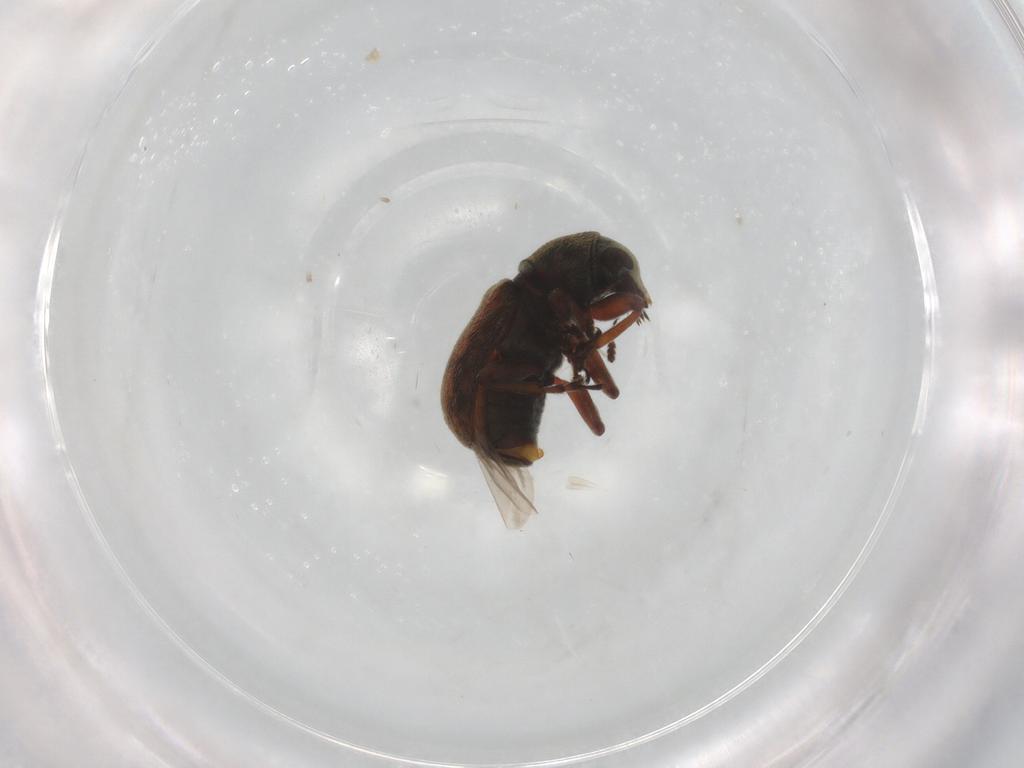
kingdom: Animalia
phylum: Arthropoda
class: Insecta
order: Coleoptera
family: Anthribidae
